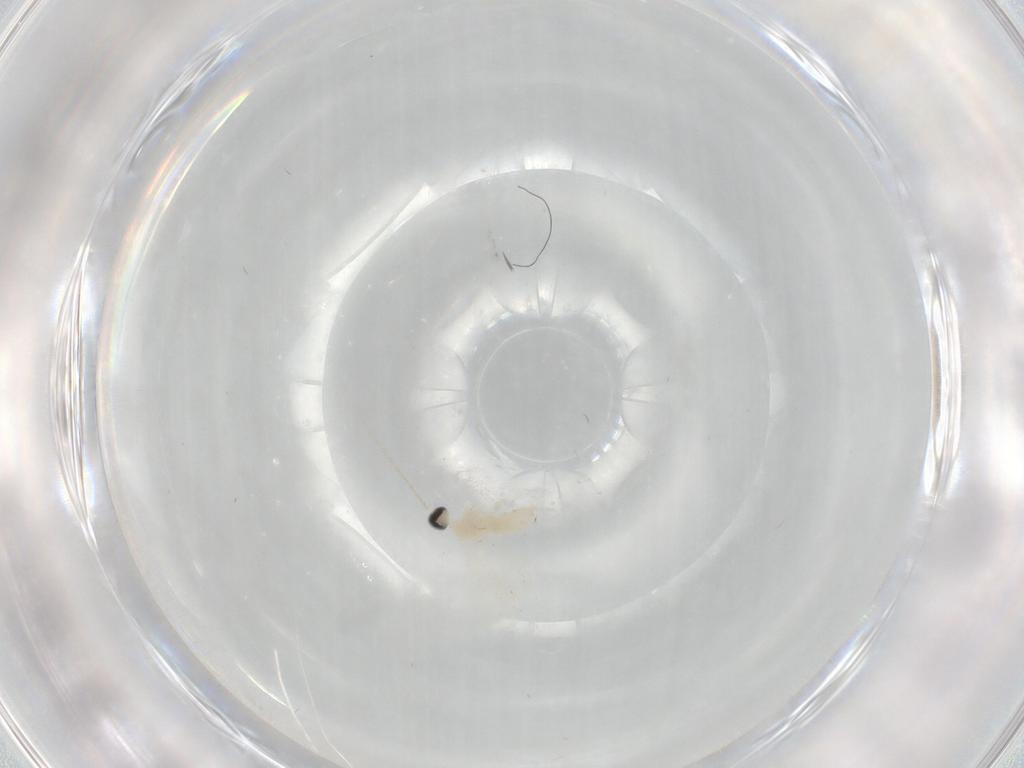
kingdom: Animalia
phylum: Arthropoda
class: Insecta
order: Diptera
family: Cecidomyiidae
